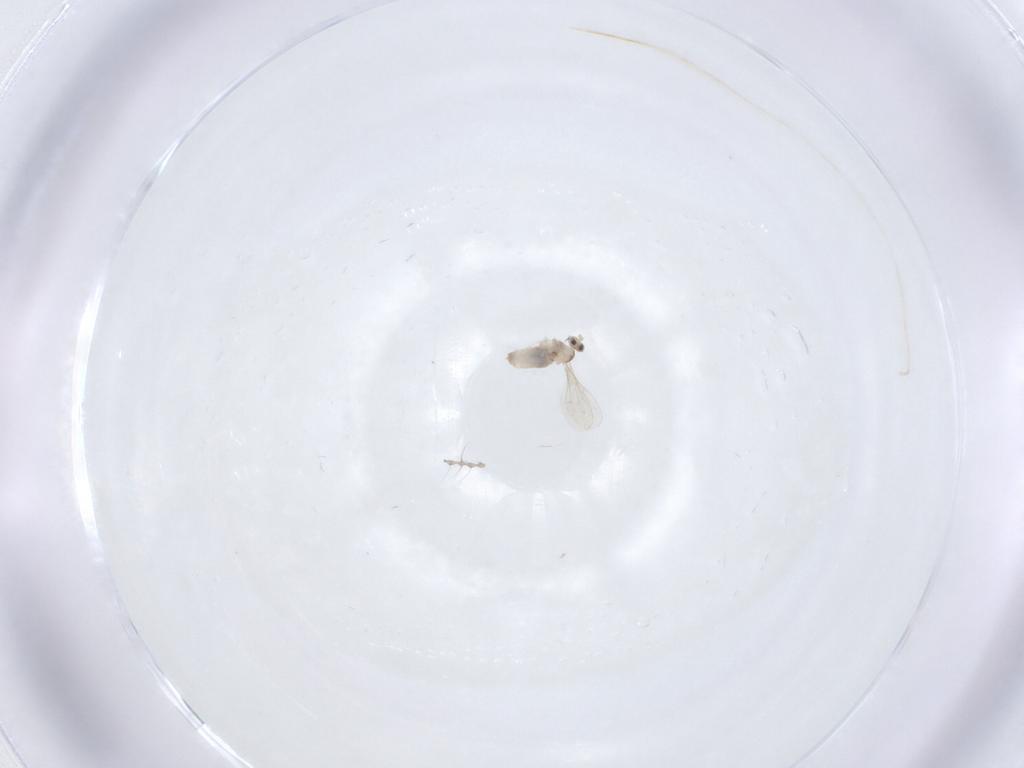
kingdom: Animalia
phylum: Arthropoda
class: Insecta
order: Diptera
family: Cecidomyiidae
